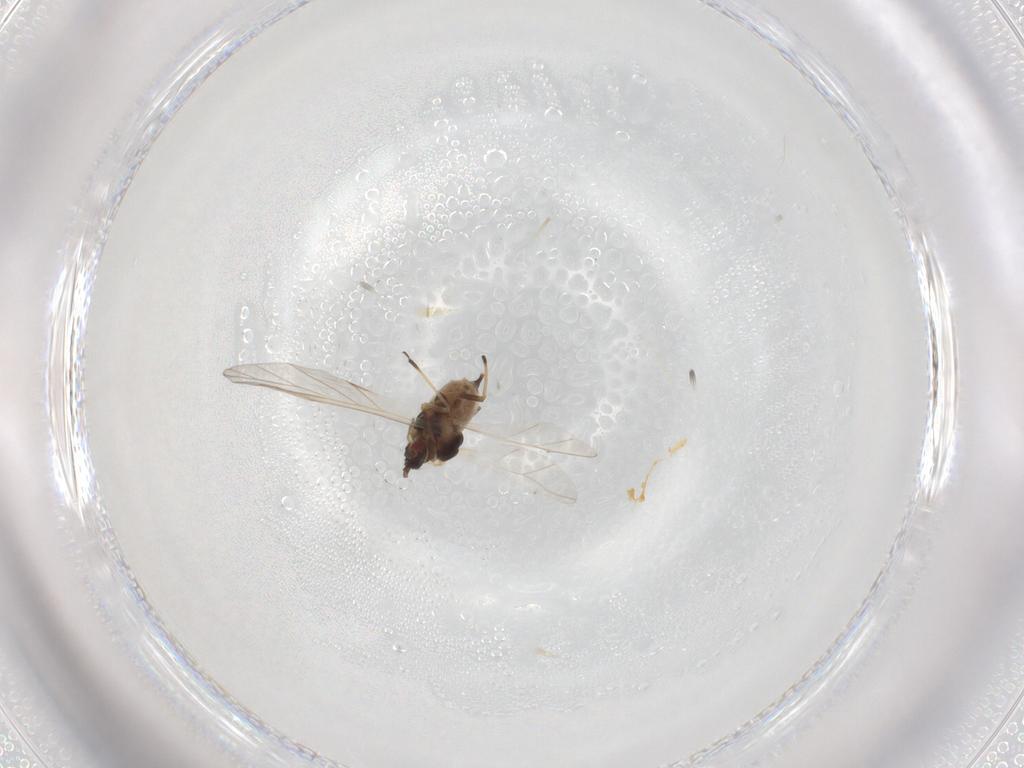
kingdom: Animalia
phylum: Arthropoda
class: Insecta
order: Hemiptera
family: Aphididae
